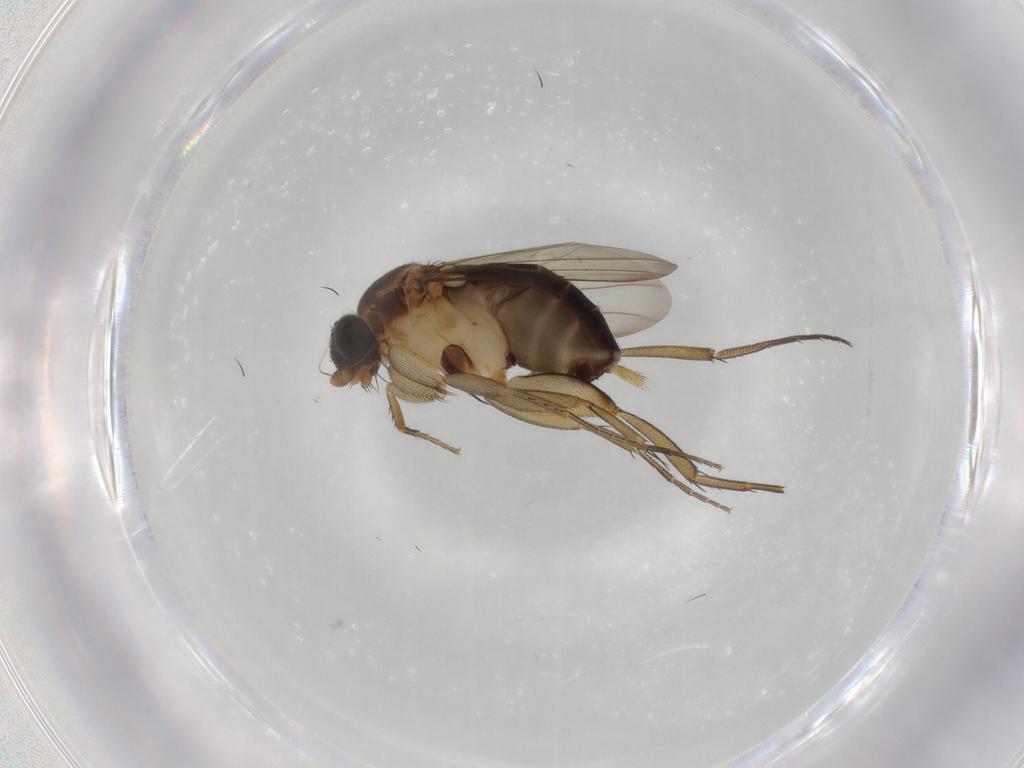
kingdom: Animalia
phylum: Arthropoda
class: Insecta
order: Diptera
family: Phoridae
